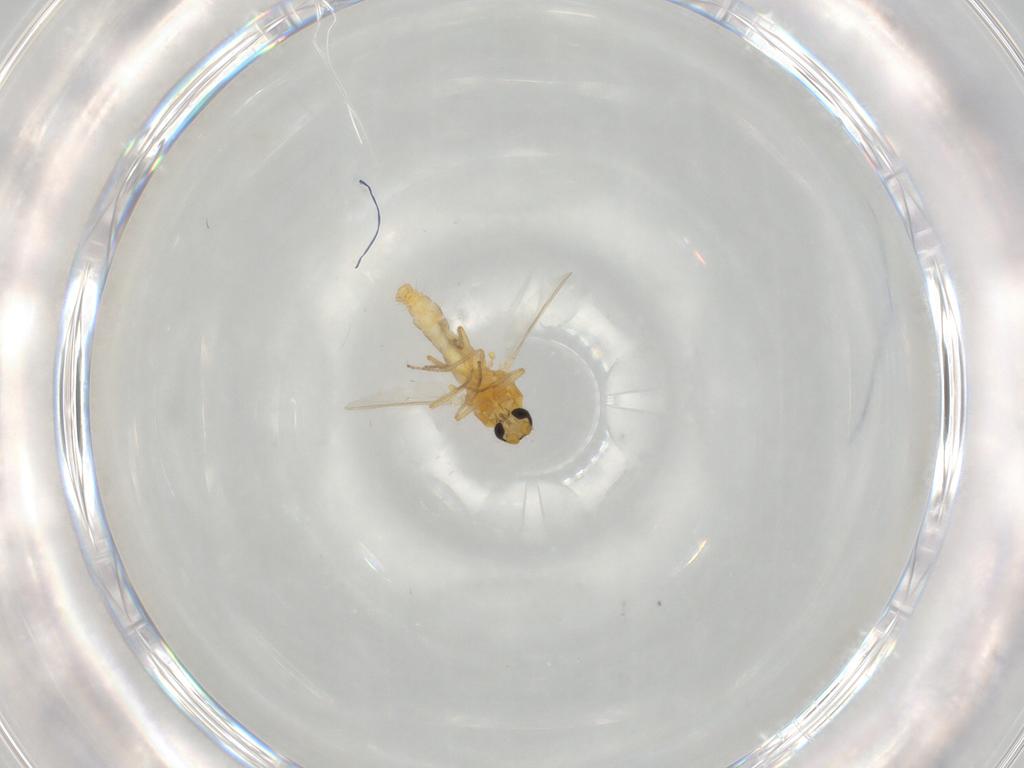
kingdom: Animalia
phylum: Arthropoda
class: Insecta
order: Diptera
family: Ceratopogonidae
